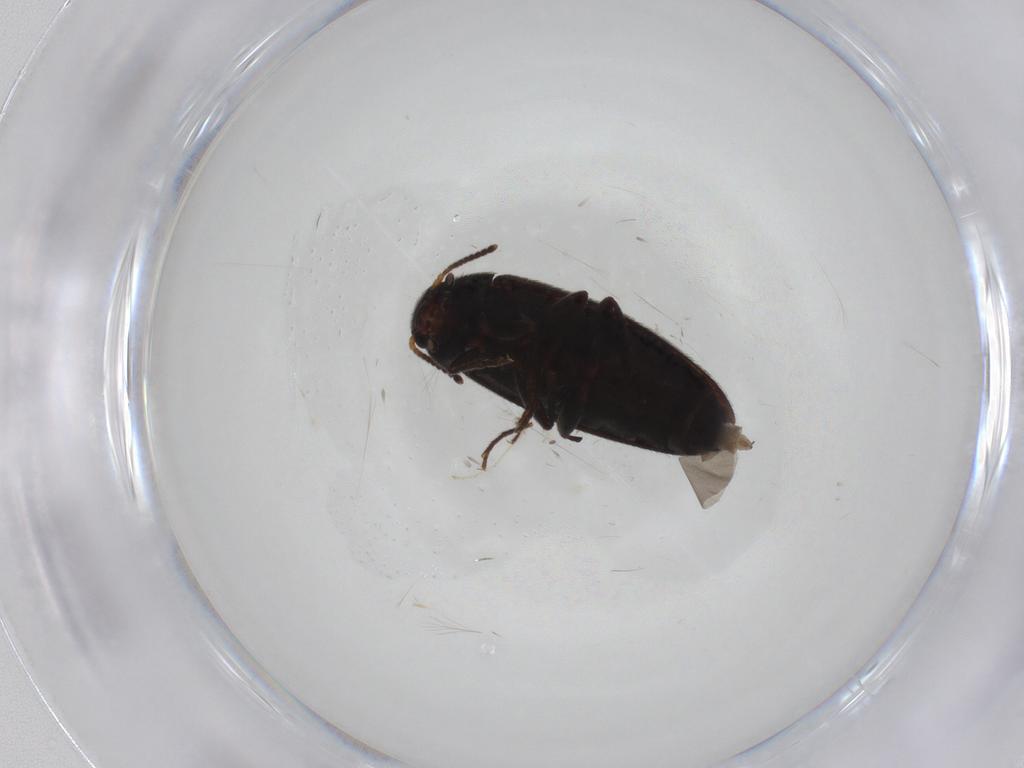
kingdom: Animalia
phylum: Arthropoda
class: Insecta
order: Coleoptera
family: Melandryidae
